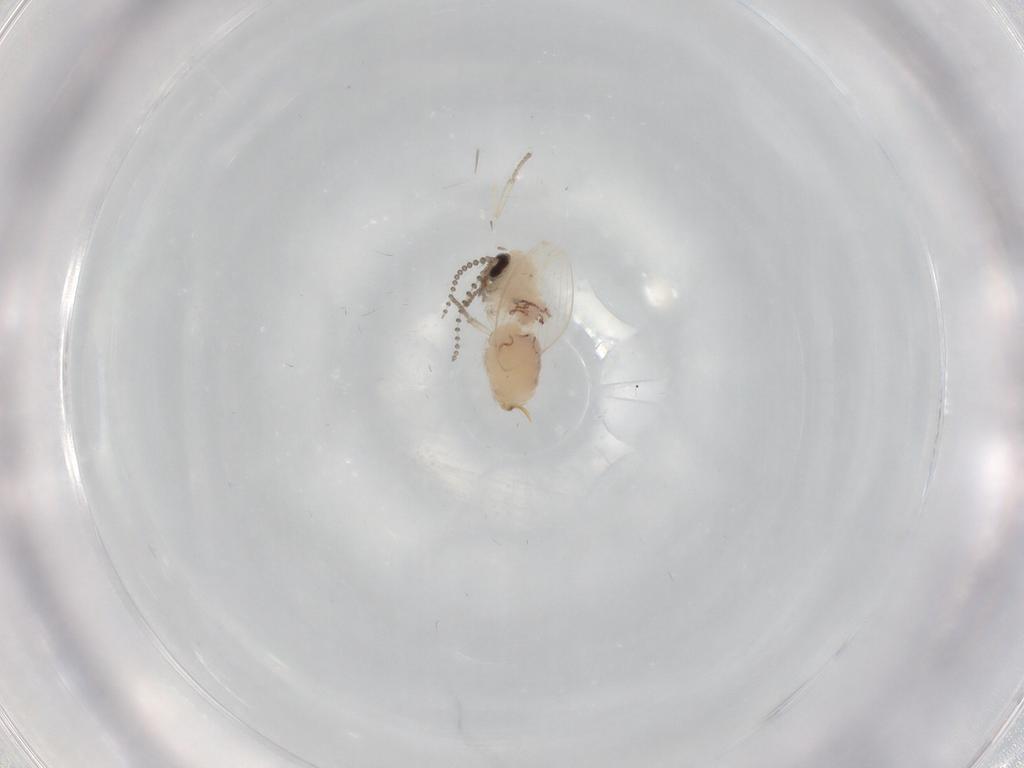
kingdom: Animalia
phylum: Arthropoda
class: Insecta
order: Diptera
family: Psychodidae
